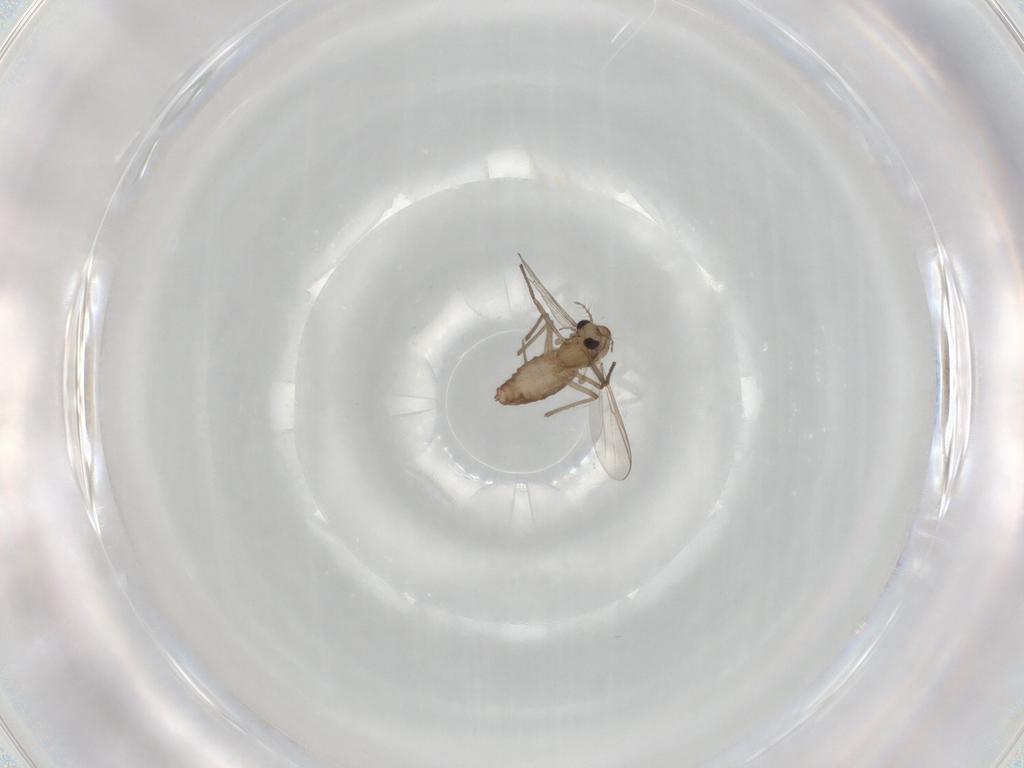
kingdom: Animalia
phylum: Arthropoda
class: Insecta
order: Diptera
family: Chironomidae
